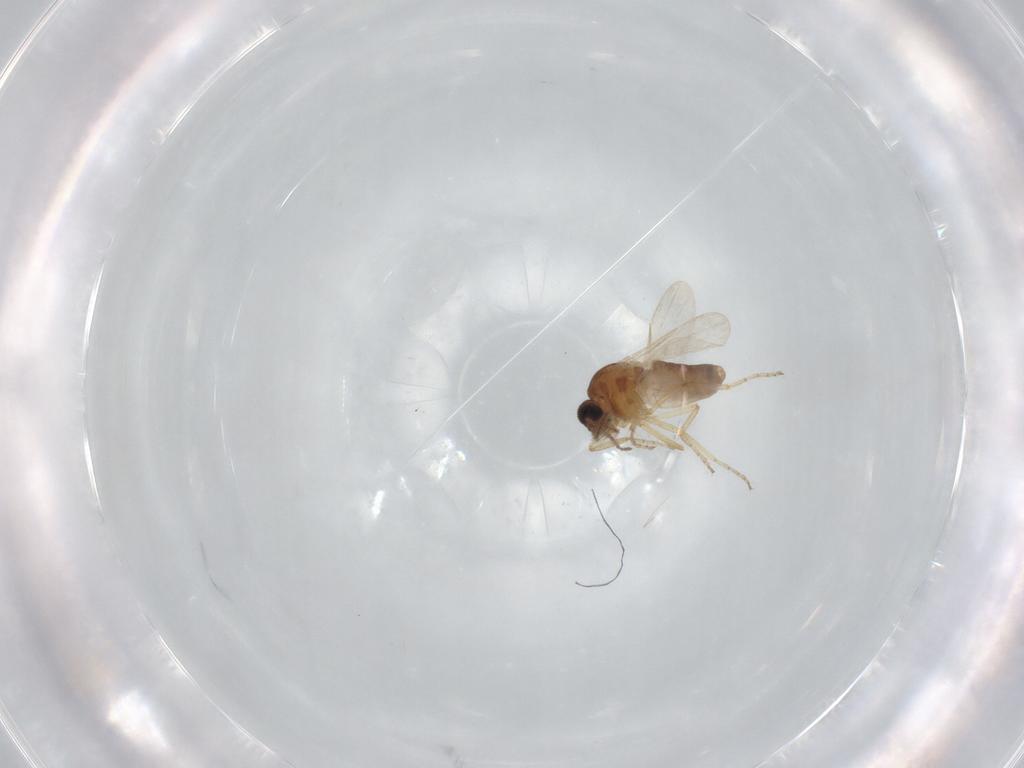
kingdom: Animalia
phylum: Arthropoda
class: Insecta
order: Diptera
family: Ceratopogonidae
